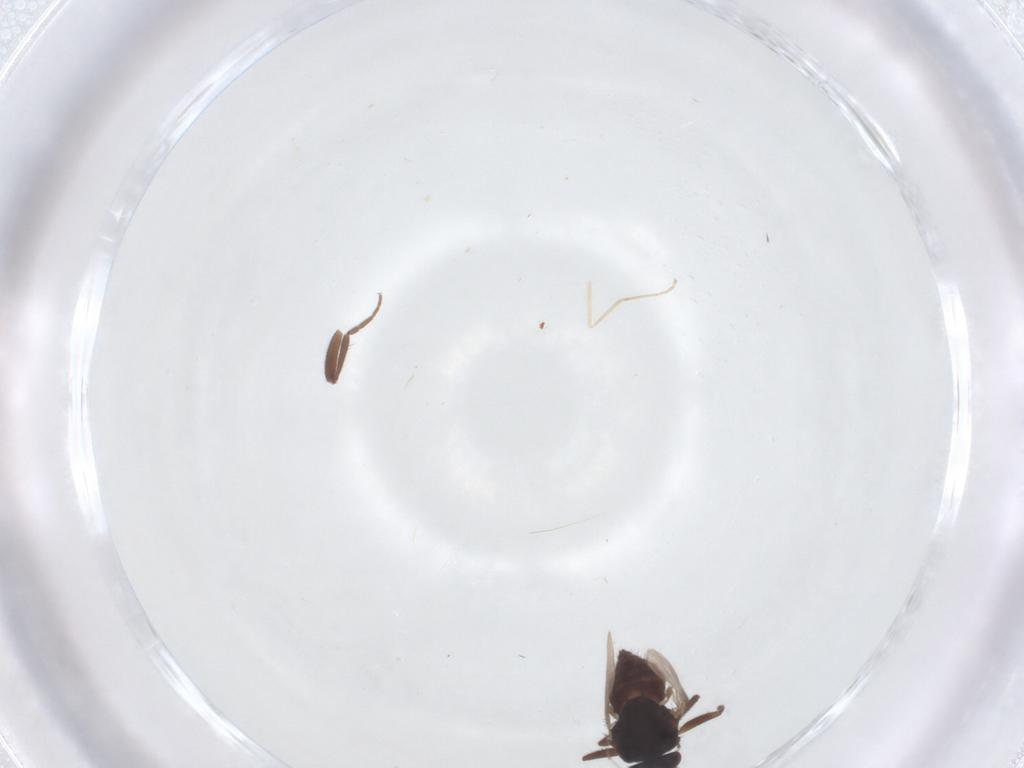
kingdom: Animalia
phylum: Arthropoda
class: Insecta
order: Diptera
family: Sphaeroceridae
